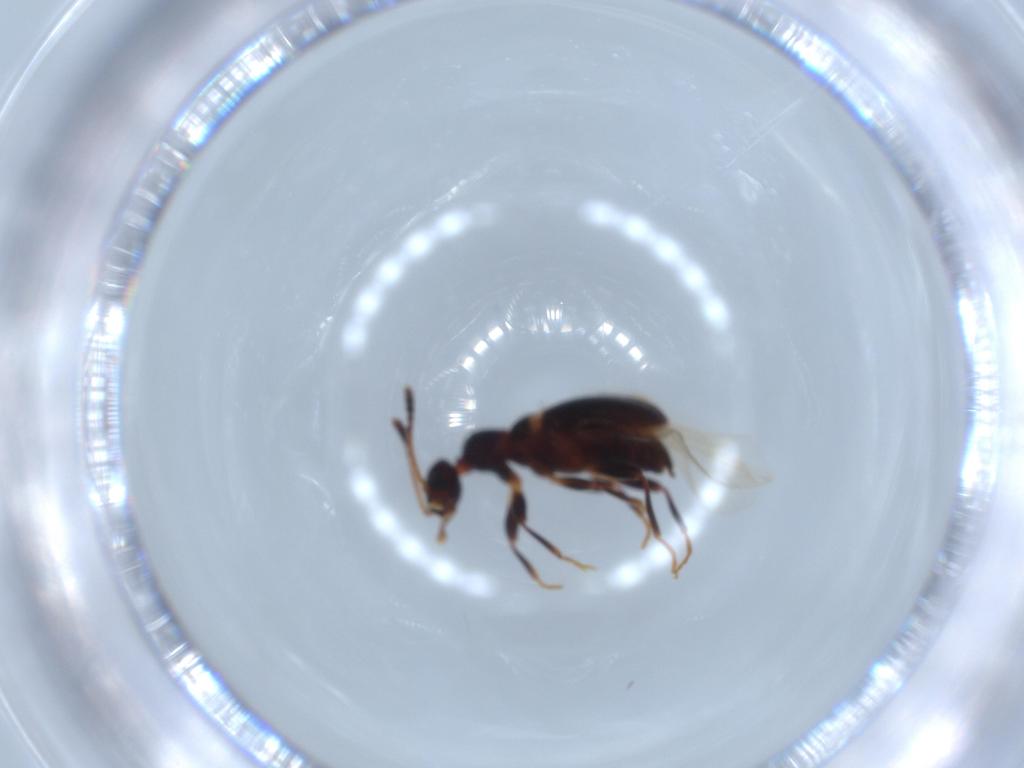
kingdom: Animalia
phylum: Arthropoda
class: Insecta
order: Coleoptera
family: Anthicidae
